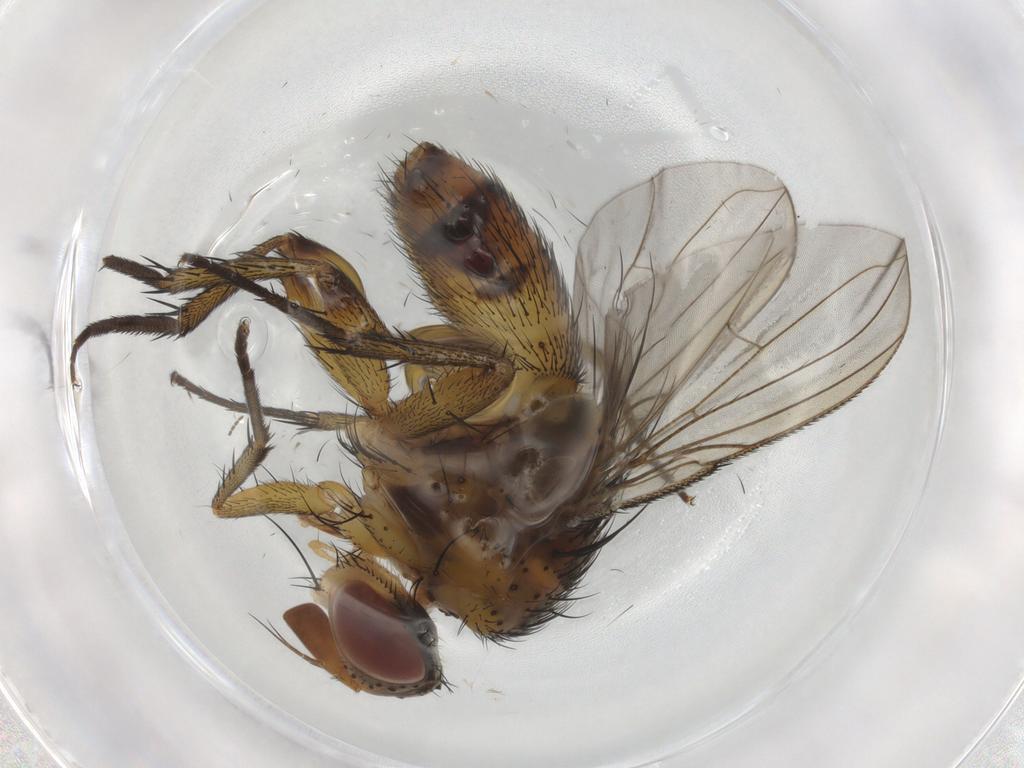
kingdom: Animalia
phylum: Arthropoda
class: Insecta
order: Diptera
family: Tachinidae
